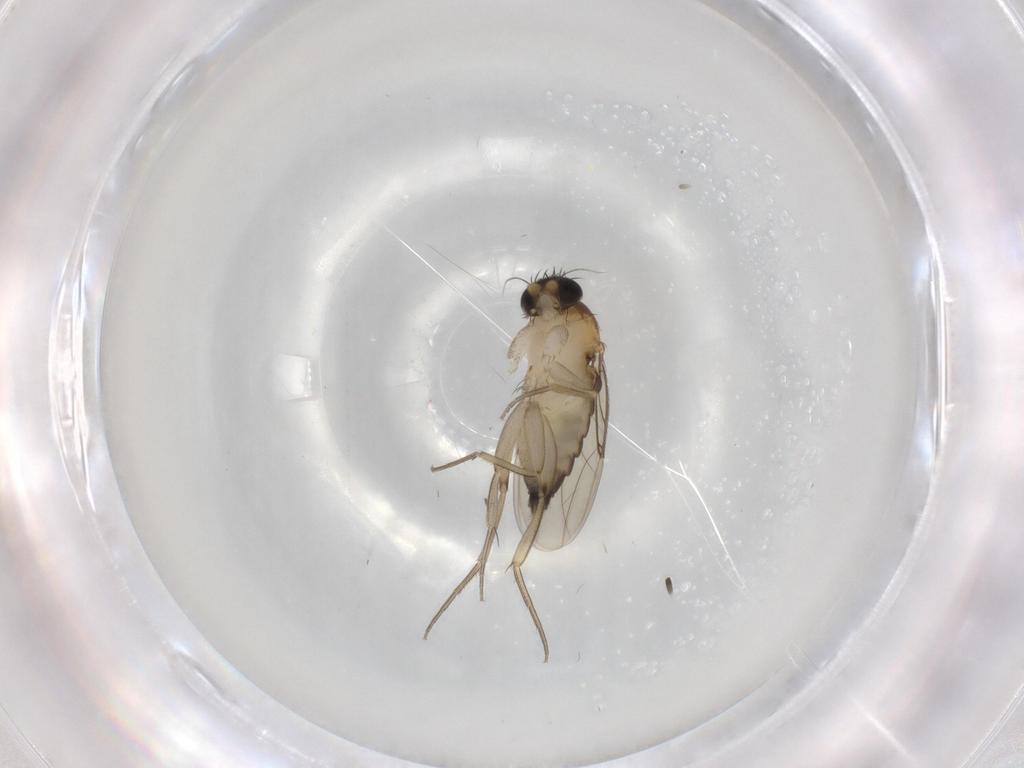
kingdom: Animalia
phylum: Arthropoda
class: Insecta
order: Diptera
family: Phoridae
